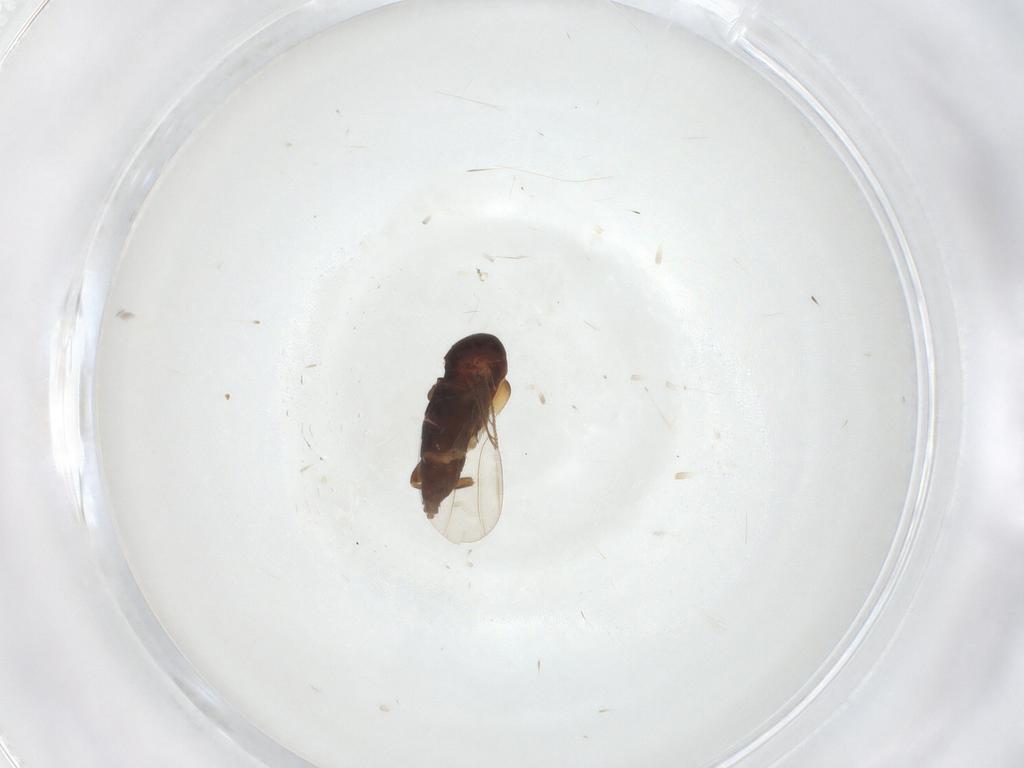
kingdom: Animalia
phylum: Arthropoda
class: Insecta
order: Diptera
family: Phoridae
